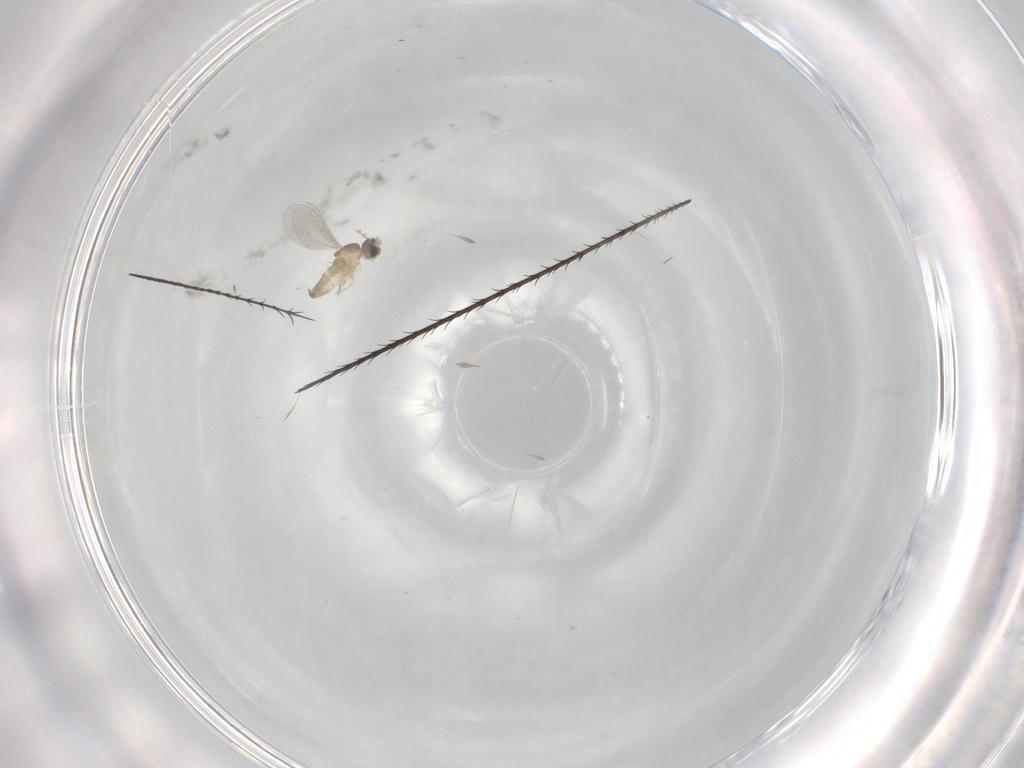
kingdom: Animalia
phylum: Arthropoda
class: Insecta
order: Diptera
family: Cecidomyiidae
